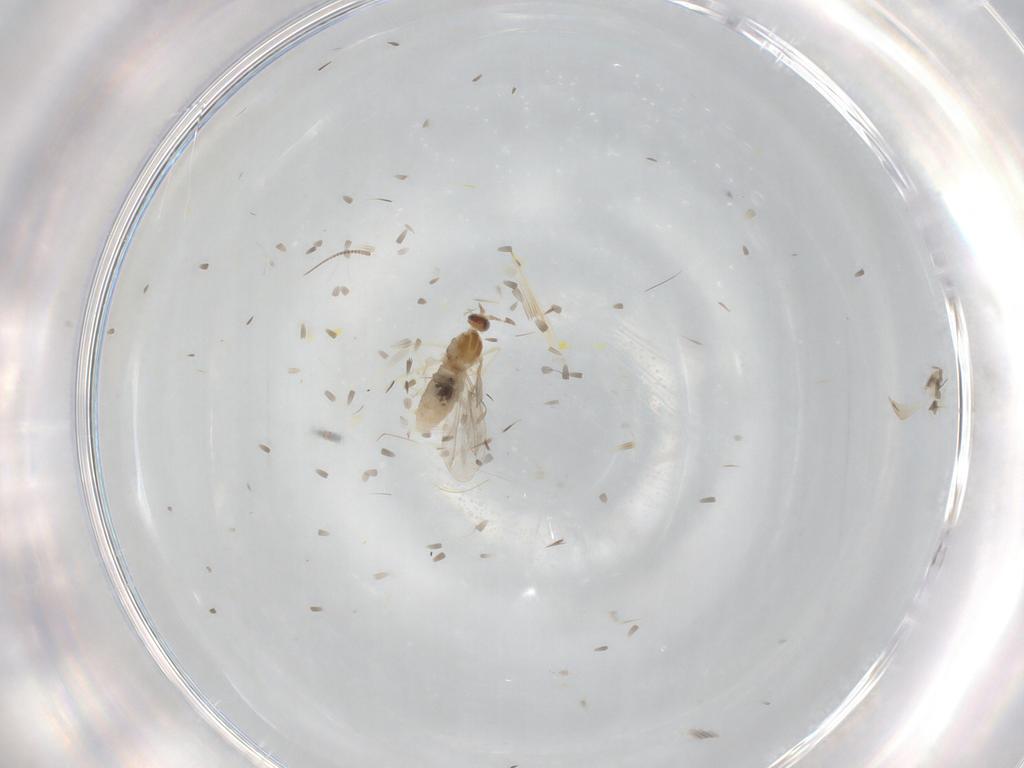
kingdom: Animalia
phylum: Arthropoda
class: Insecta
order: Diptera
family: Cecidomyiidae
